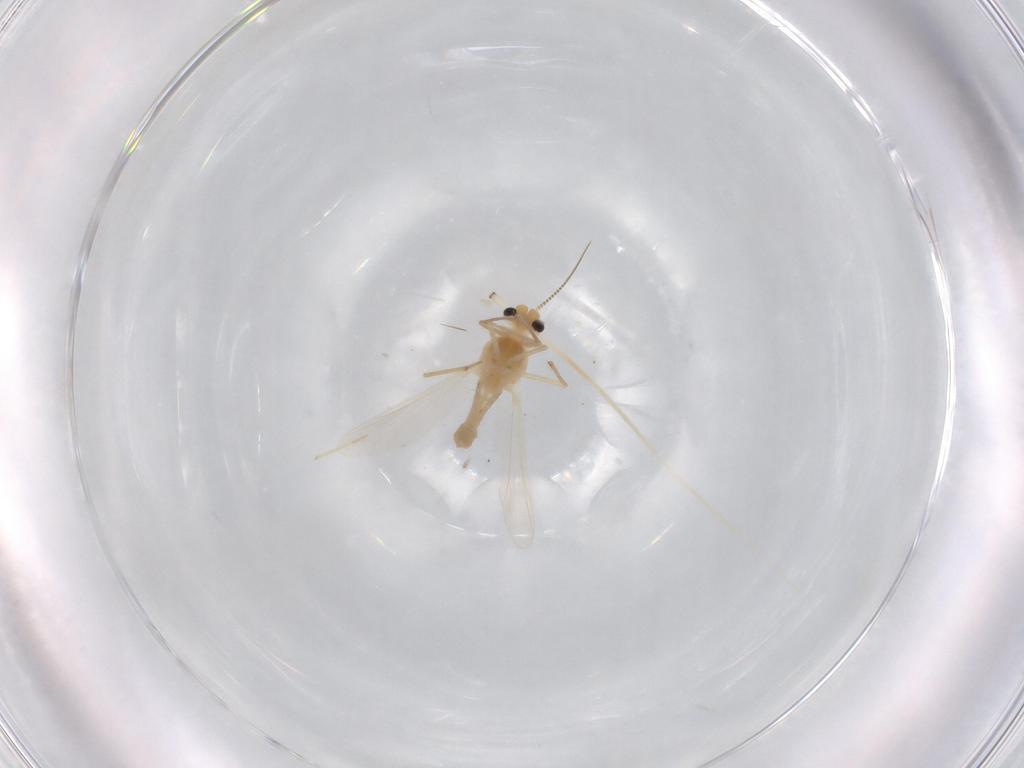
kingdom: Animalia
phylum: Arthropoda
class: Insecta
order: Diptera
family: Chironomidae
